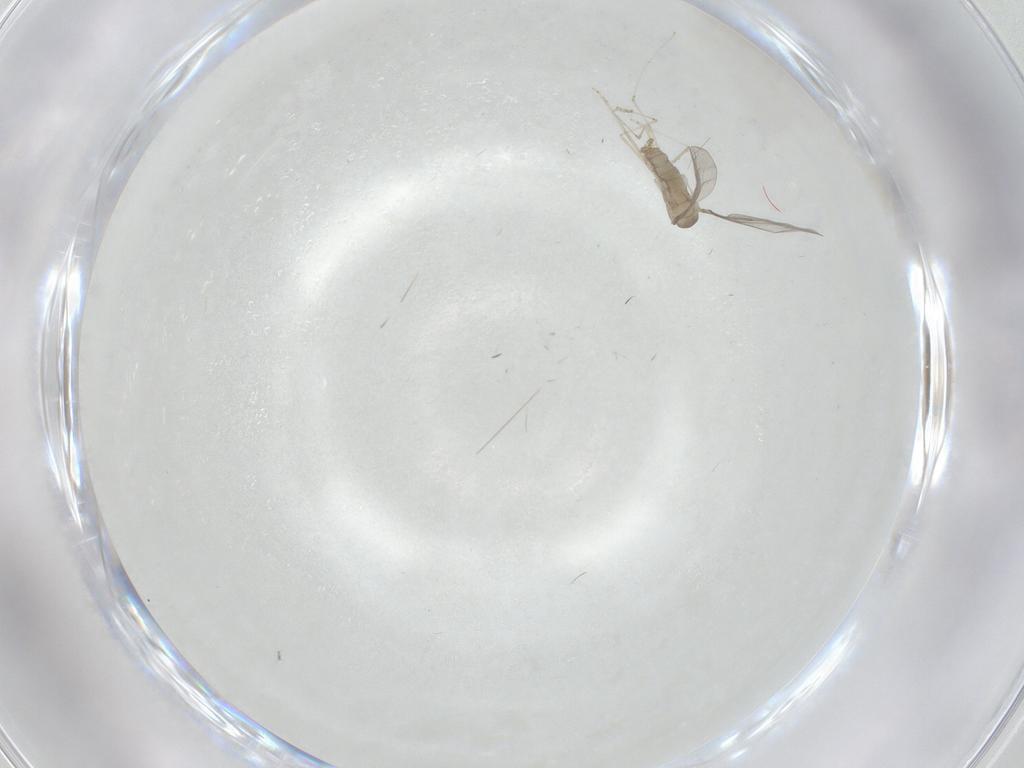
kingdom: Animalia
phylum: Arthropoda
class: Insecta
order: Diptera
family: Cecidomyiidae
